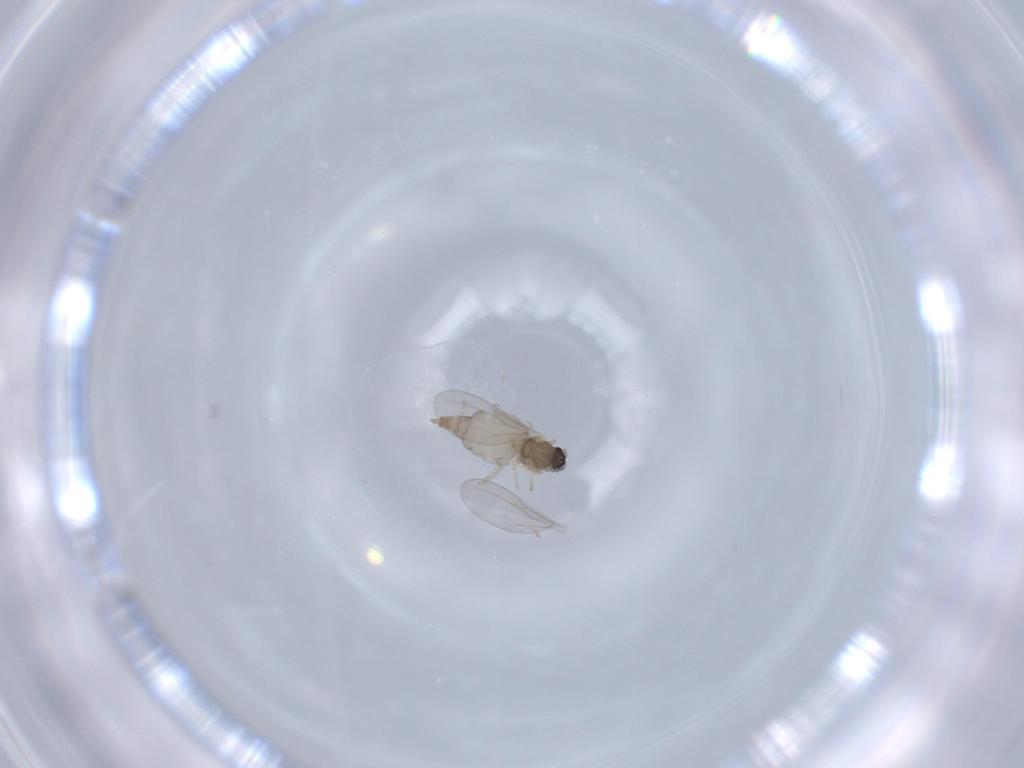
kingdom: Animalia
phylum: Arthropoda
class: Insecta
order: Diptera
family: Cecidomyiidae
